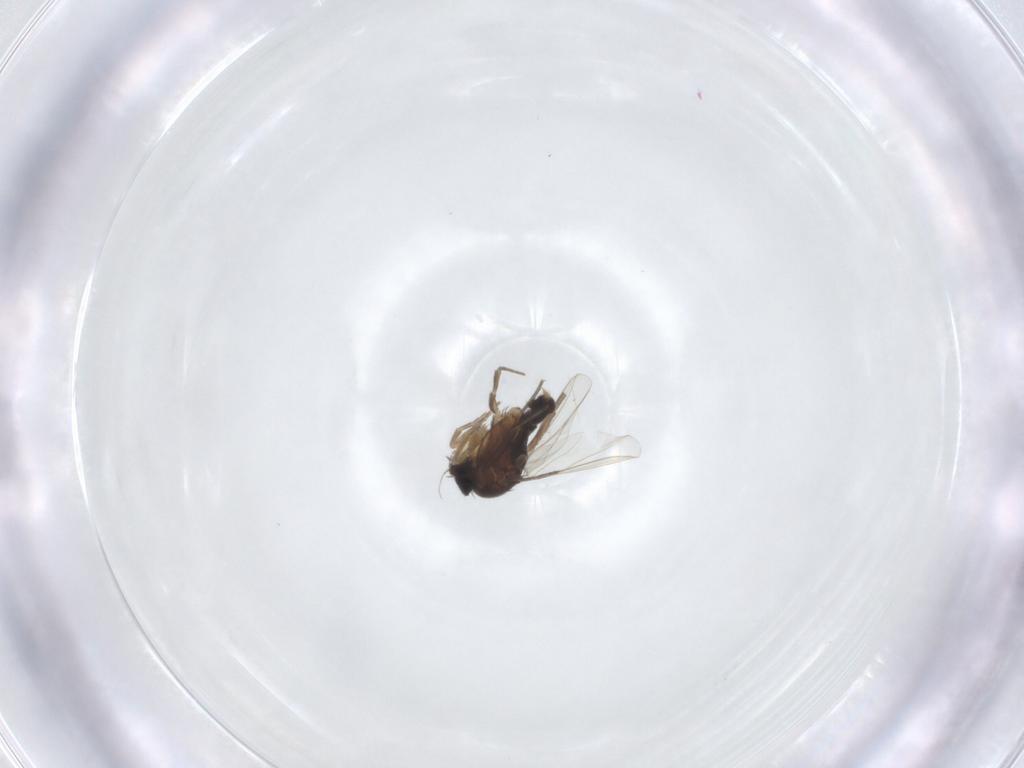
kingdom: Animalia
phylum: Arthropoda
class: Insecta
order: Diptera
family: Phoridae
